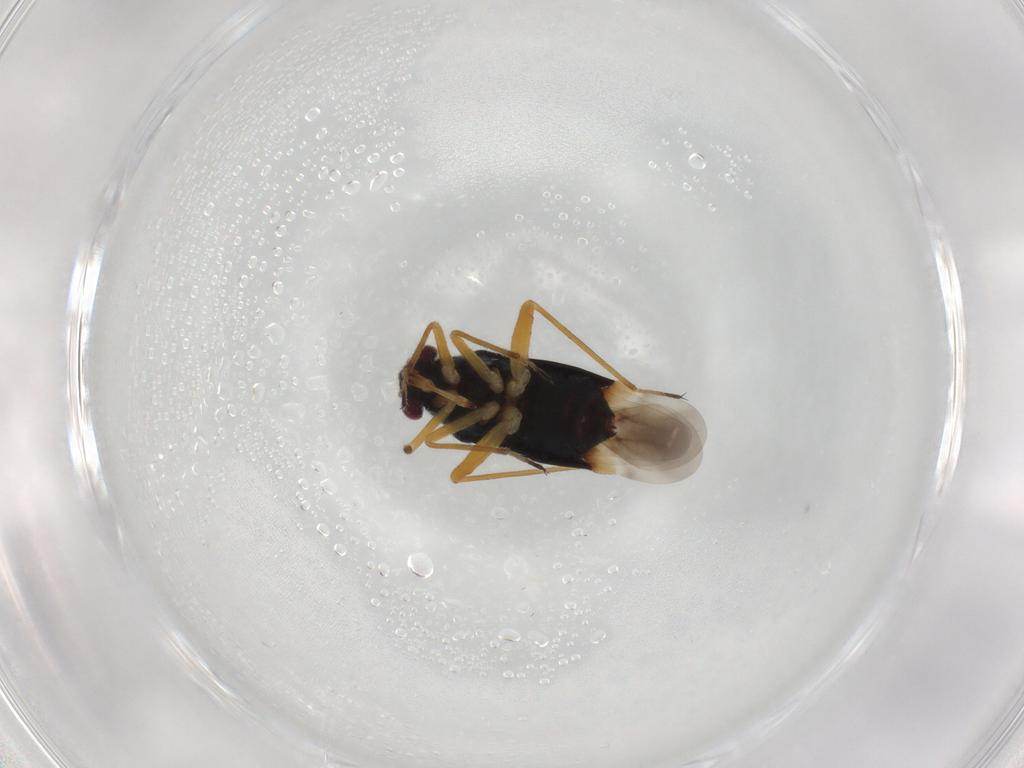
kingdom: Animalia
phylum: Arthropoda
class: Insecta
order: Hemiptera
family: Miridae
